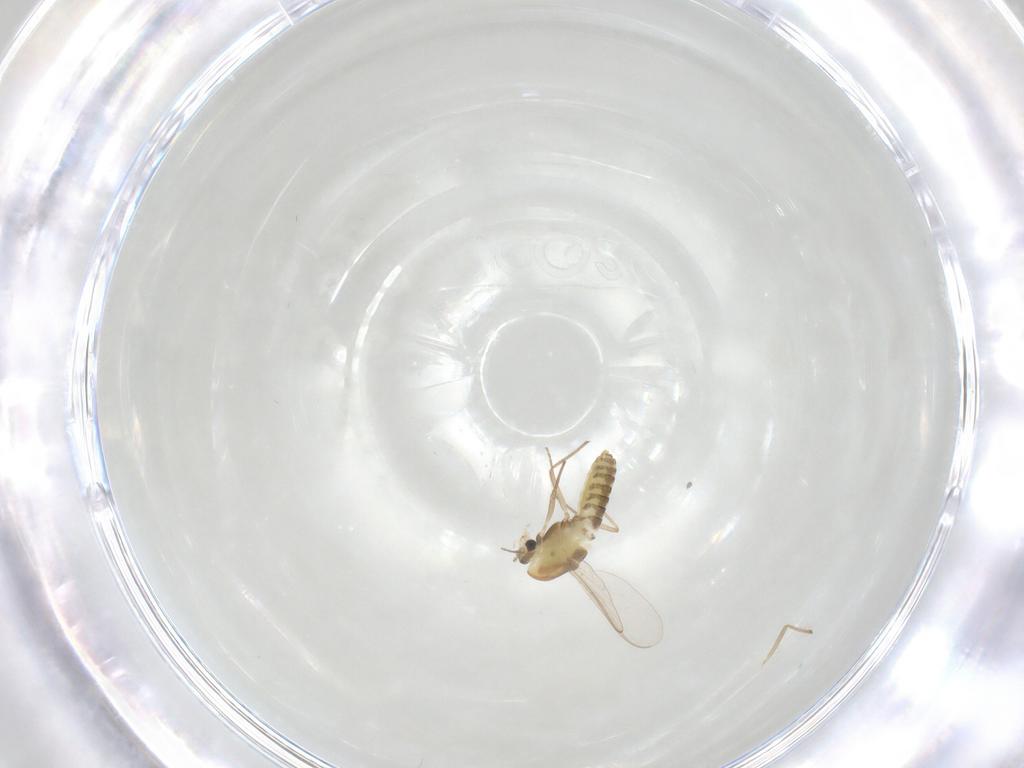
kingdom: Animalia
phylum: Arthropoda
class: Insecta
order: Diptera
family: Chironomidae
